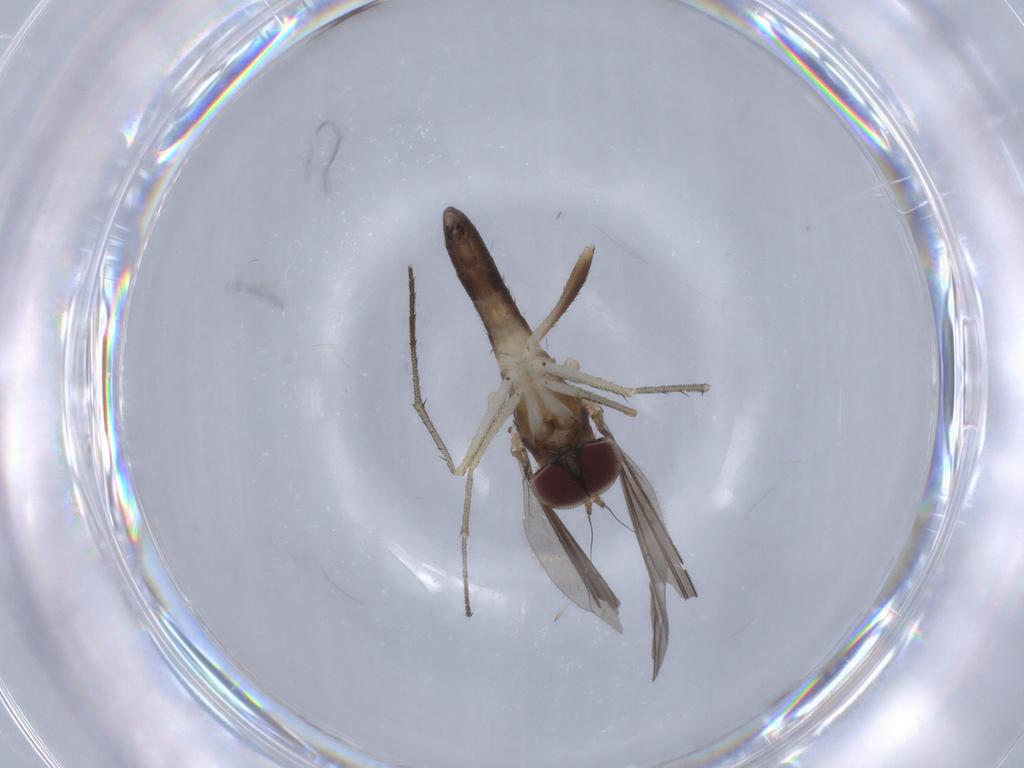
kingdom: Animalia
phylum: Arthropoda
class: Insecta
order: Diptera
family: Dolichopodidae
